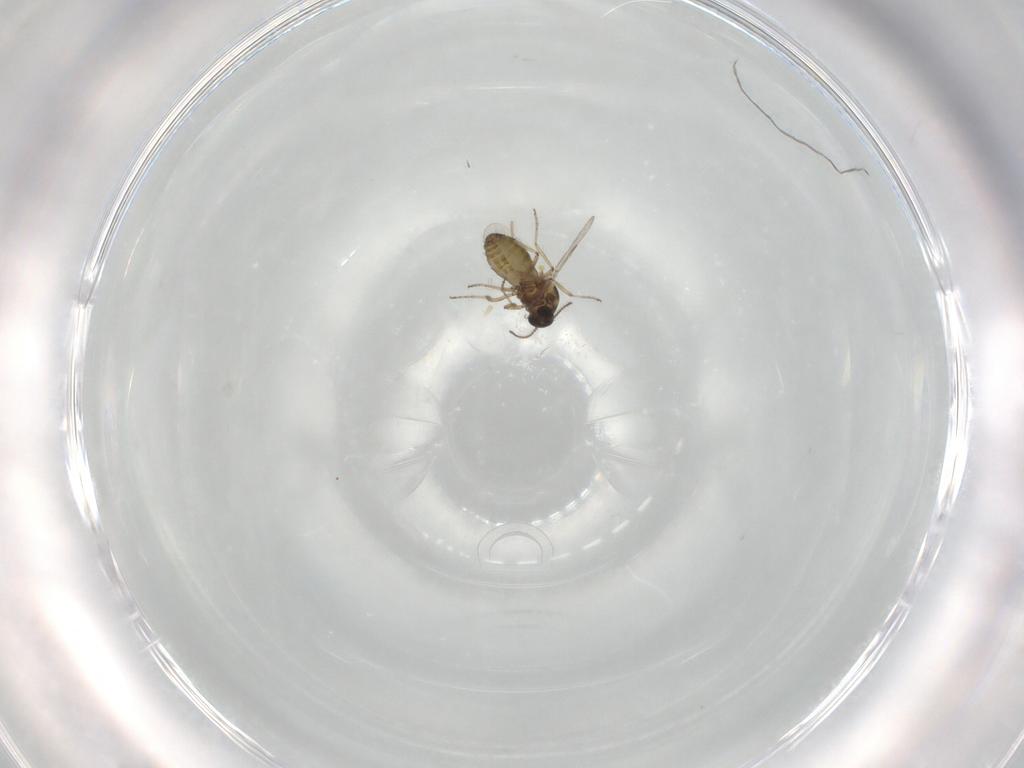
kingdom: Animalia
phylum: Arthropoda
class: Insecta
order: Diptera
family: Ceratopogonidae
